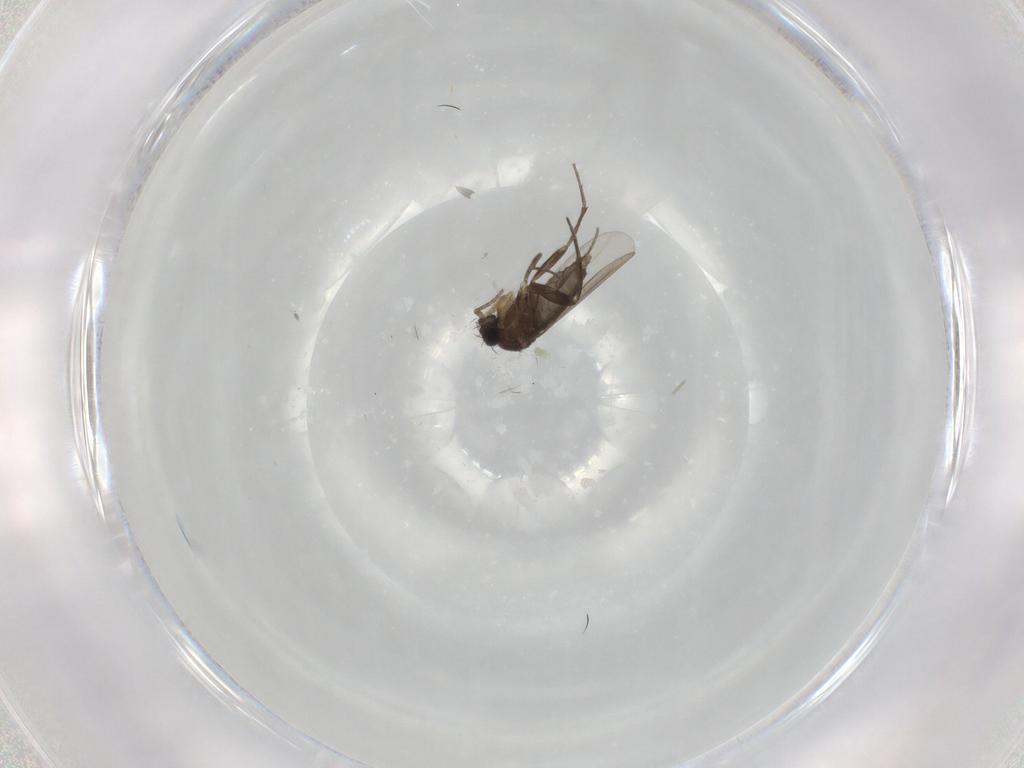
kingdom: Animalia
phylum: Arthropoda
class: Insecta
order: Diptera
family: Phoridae
